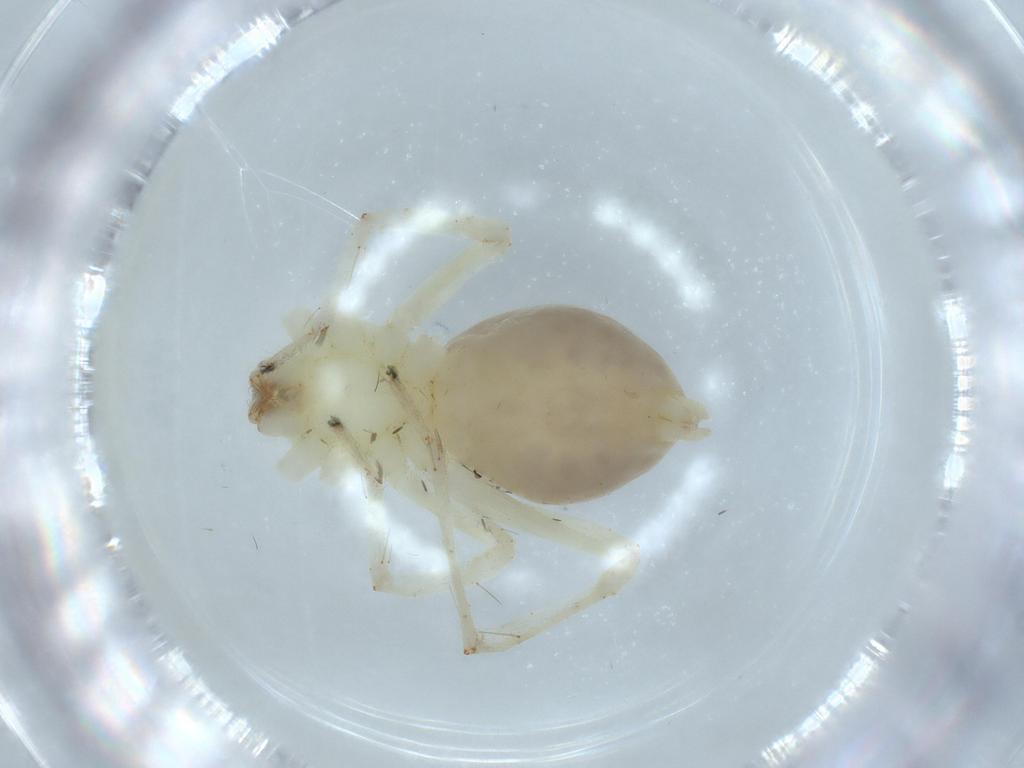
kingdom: Animalia
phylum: Arthropoda
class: Arachnida
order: Araneae
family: Anyphaenidae
